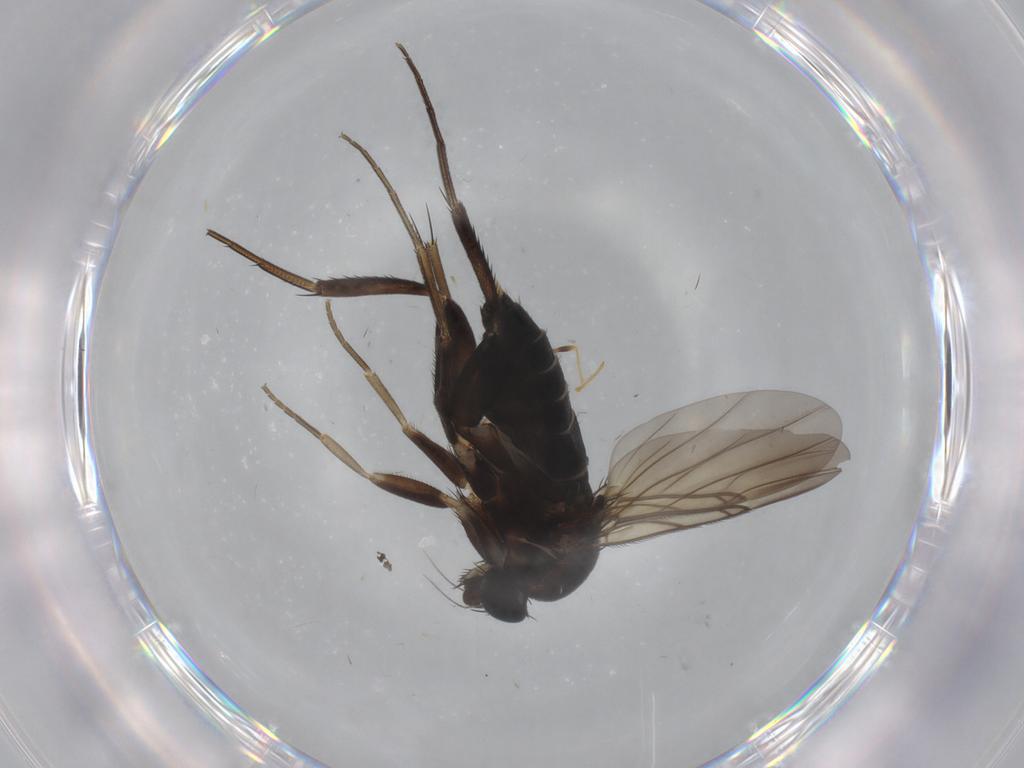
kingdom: Animalia
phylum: Arthropoda
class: Insecta
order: Diptera
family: Phoridae
